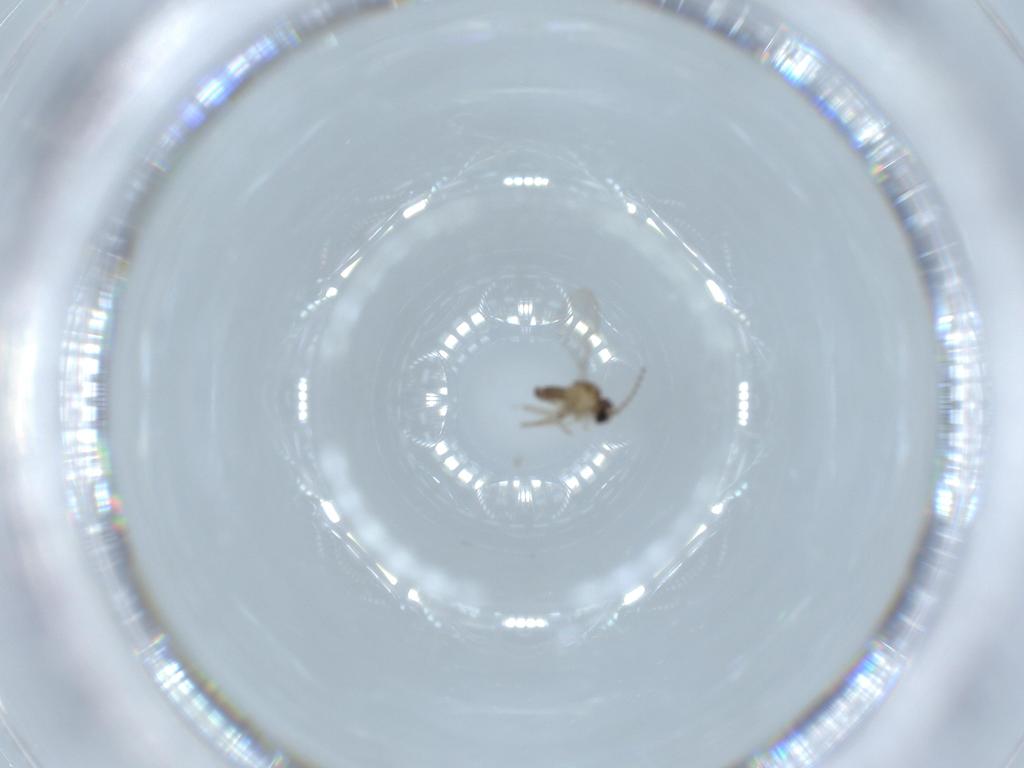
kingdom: Animalia
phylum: Arthropoda
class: Insecta
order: Diptera
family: Cecidomyiidae
